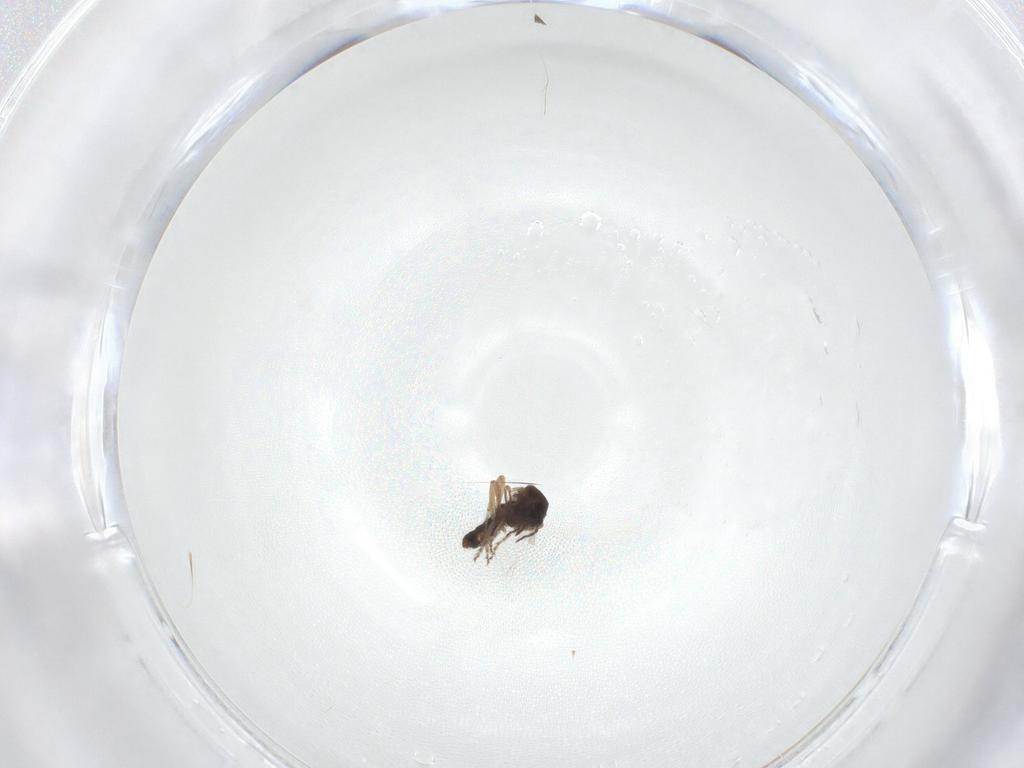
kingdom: Animalia
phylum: Arthropoda
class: Insecta
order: Diptera
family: Ceratopogonidae
